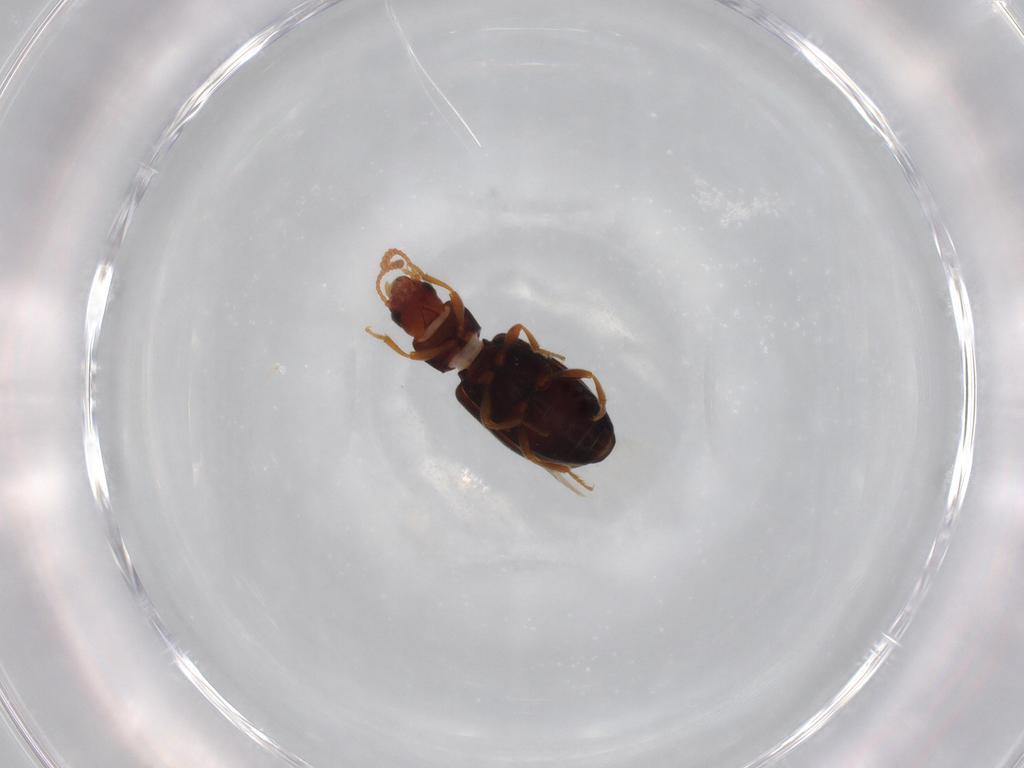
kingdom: Animalia
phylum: Arthropoda
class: Insecta
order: Coleoptera
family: Tenebrionidae
